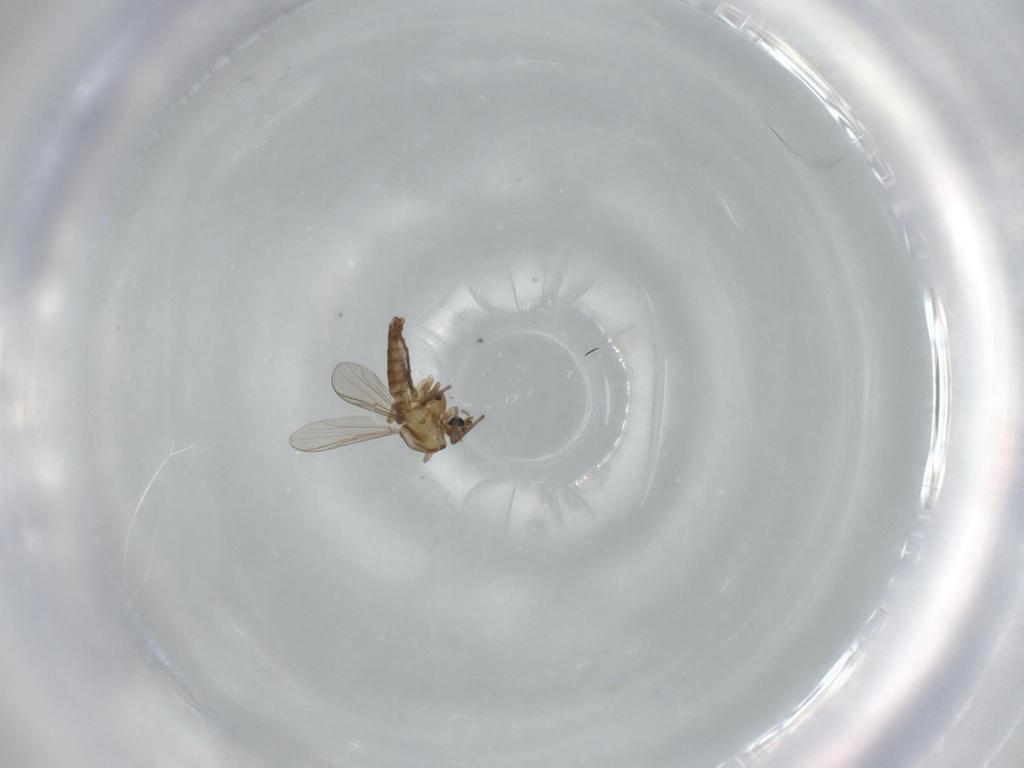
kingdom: Animalia
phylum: Arthropoda
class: Insecta
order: Diptera
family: Chironomidae
